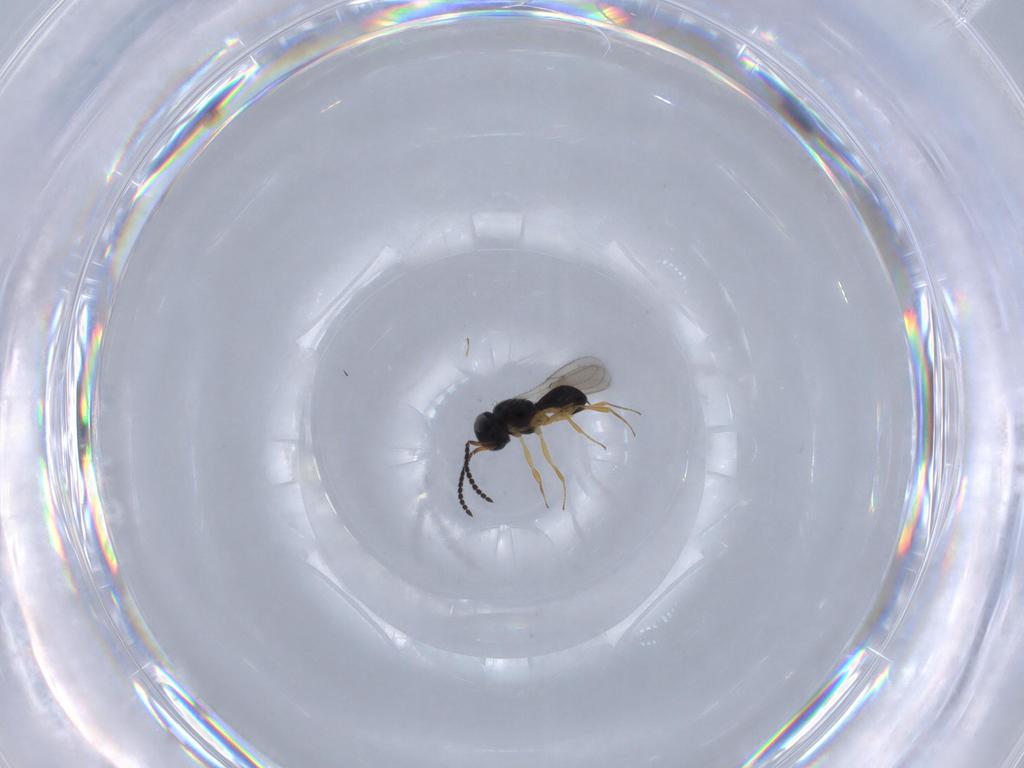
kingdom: Animalia
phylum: Arthropoda
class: Insecta
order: Hymenoptera
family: Scelionidae
